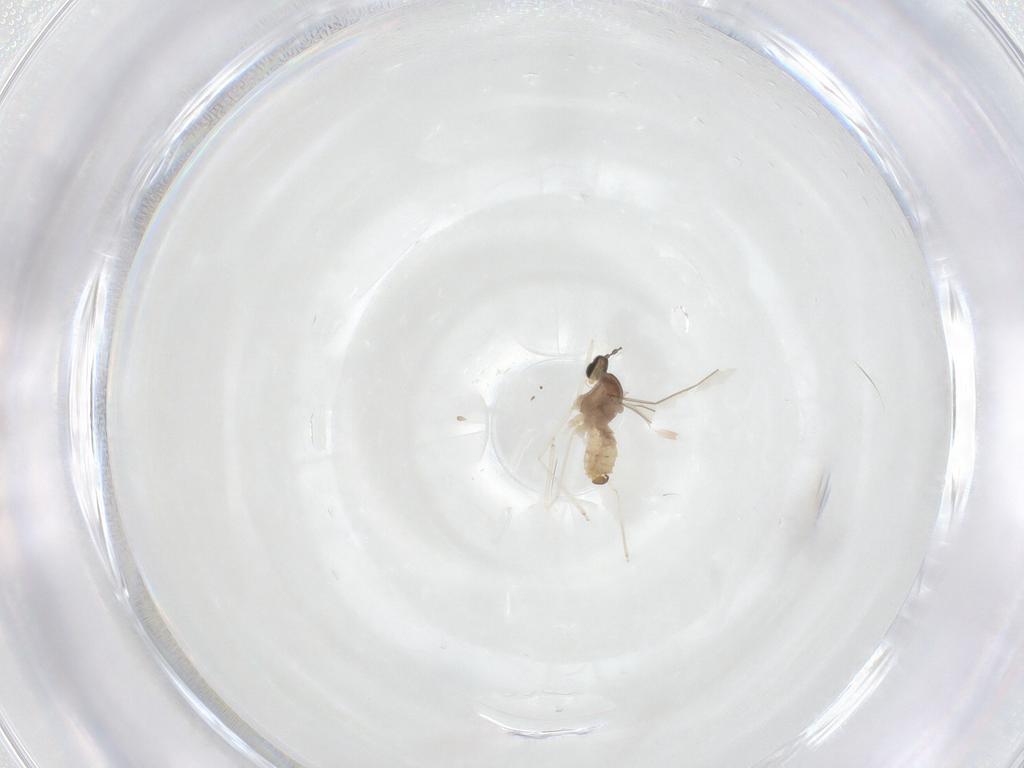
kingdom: Animalia
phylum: Arthropoda
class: Insecta
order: Diptera
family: Cecidomyiidae
